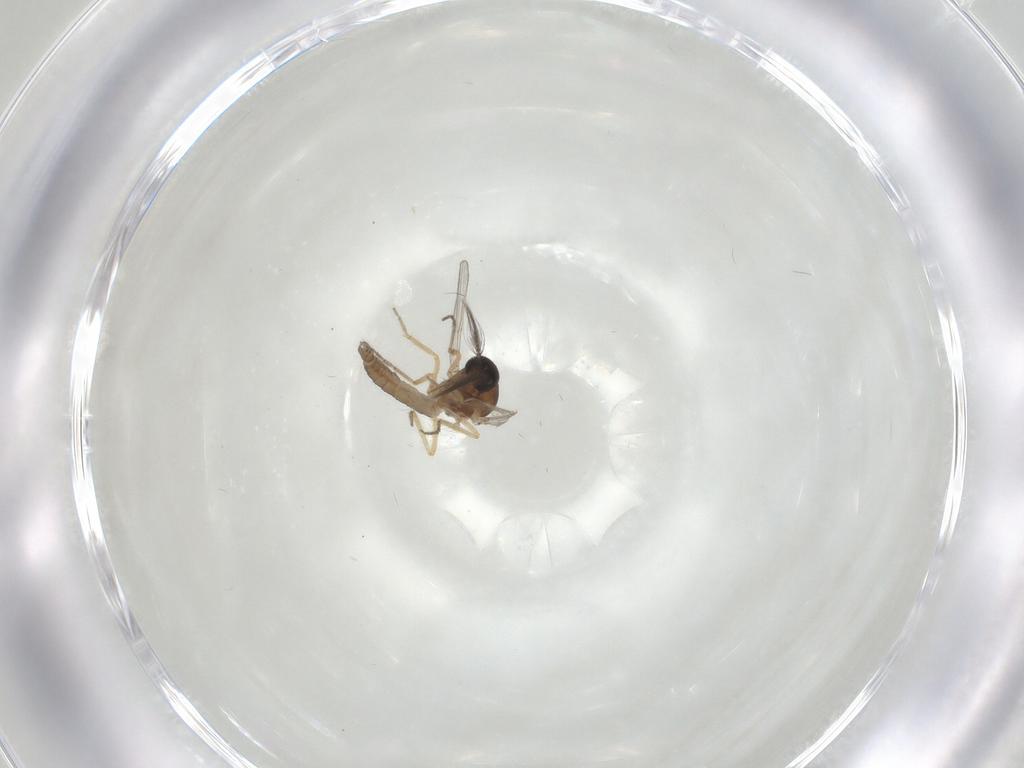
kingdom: Animalia
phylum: Arthropoda
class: Insecta
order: Diptera
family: Ceratopogonidae
